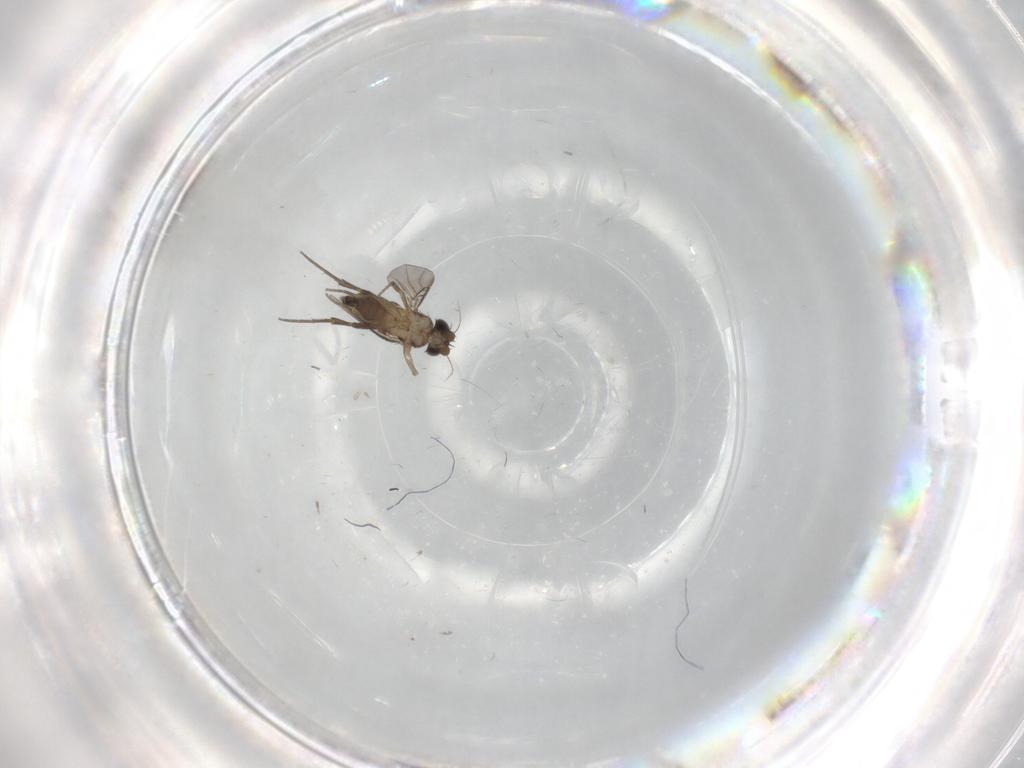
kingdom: Animalia
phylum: Arthropoda
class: Insecta
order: Diptera
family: Phoridae
